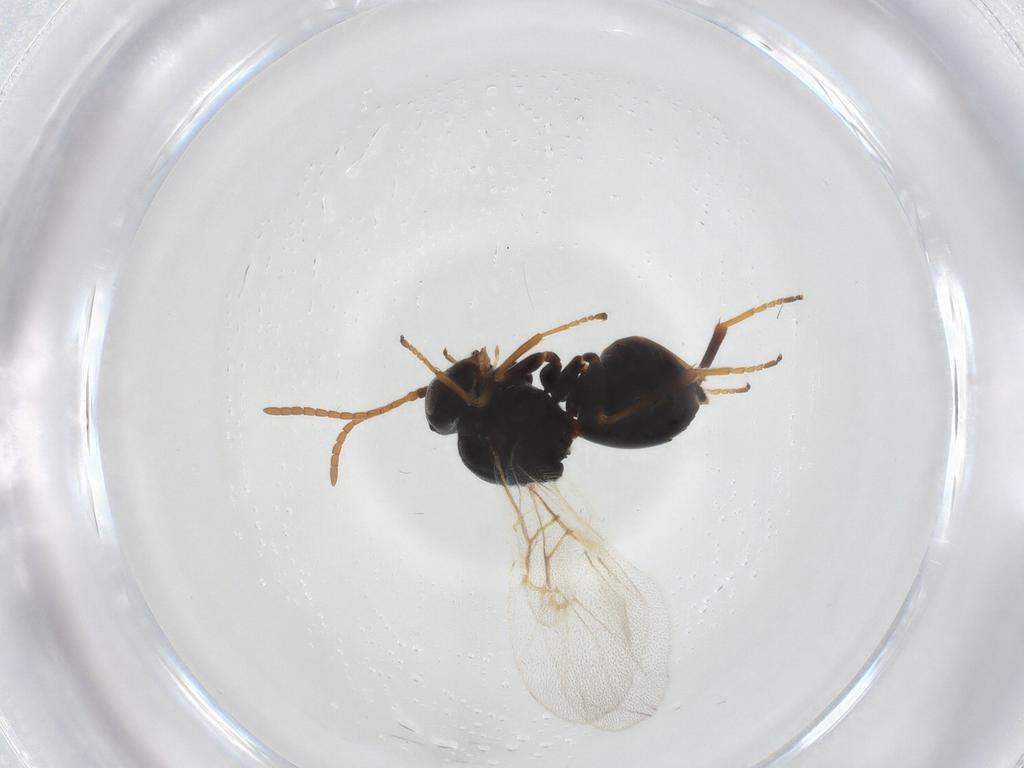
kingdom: Animalia
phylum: Arthropoda
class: Insecta
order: Hymenoptera
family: Cynipidae
